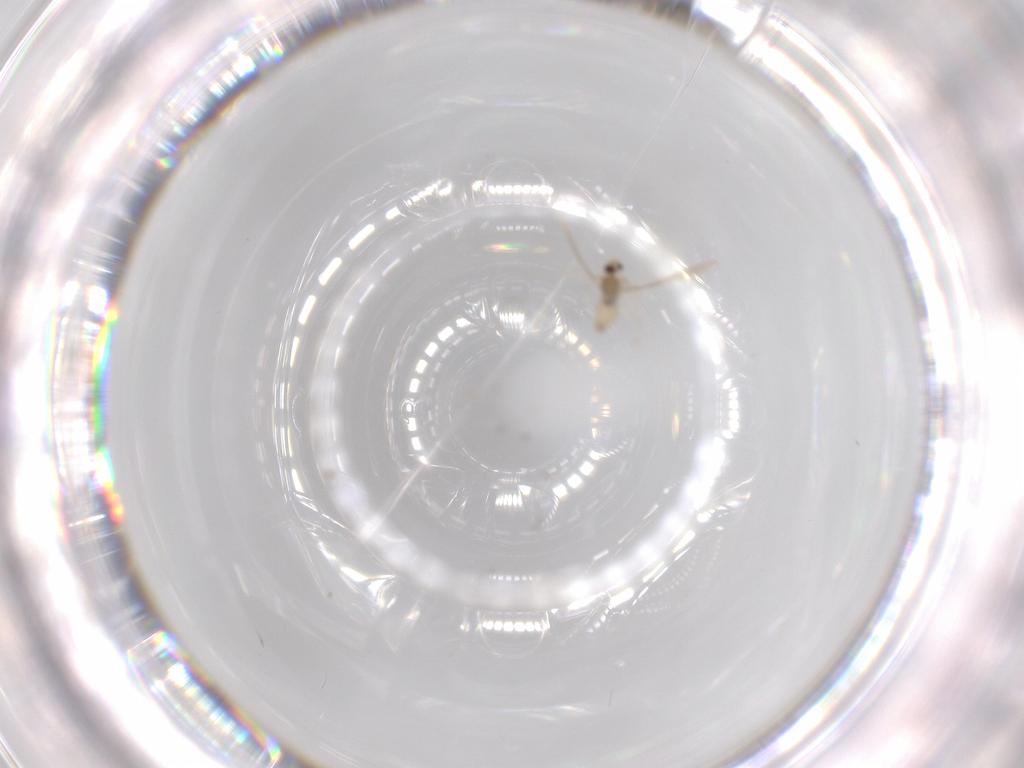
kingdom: Animalia
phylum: Arthropoda
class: Insecta
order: Diptera
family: Cecidomyiidae
